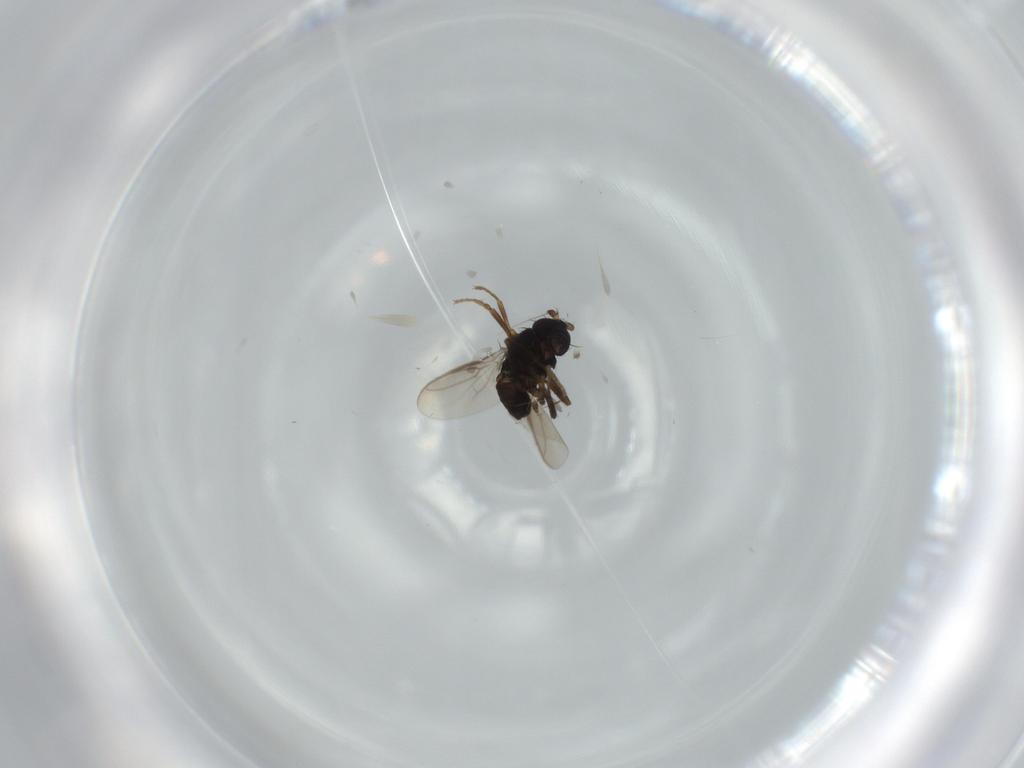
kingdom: Animalia
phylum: Arthropoda
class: Insecta
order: Diptera
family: Sphaeroceridae
